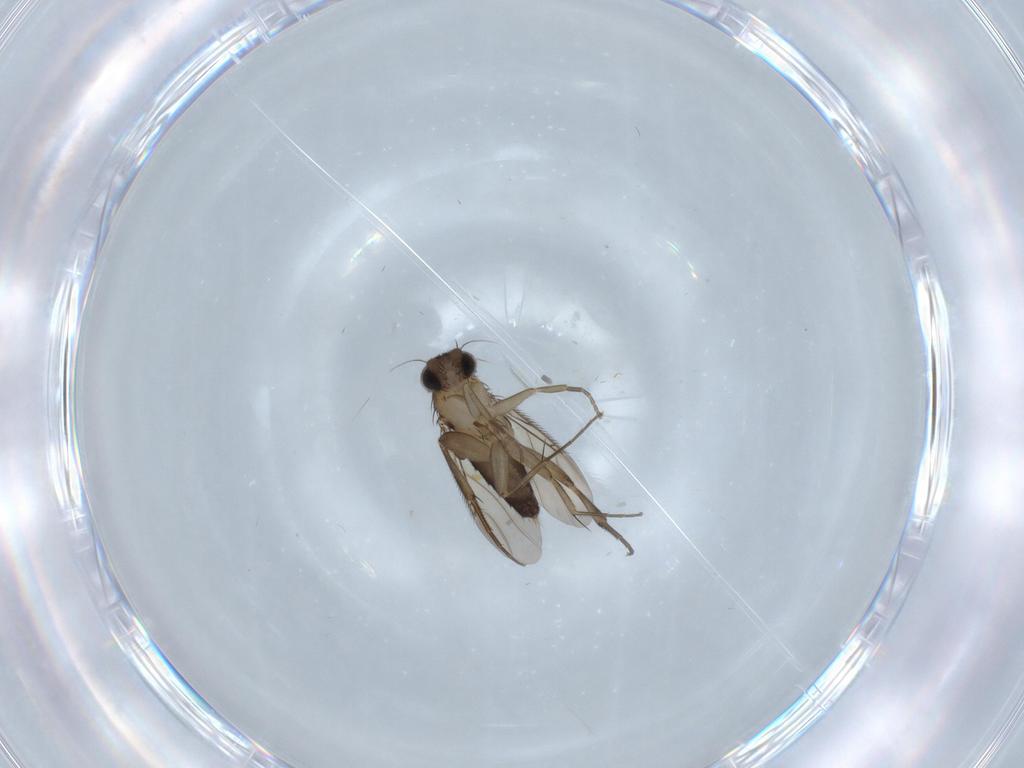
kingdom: Animalia
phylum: Arthropoda
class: Insecta
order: Diptera
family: Phoridae
